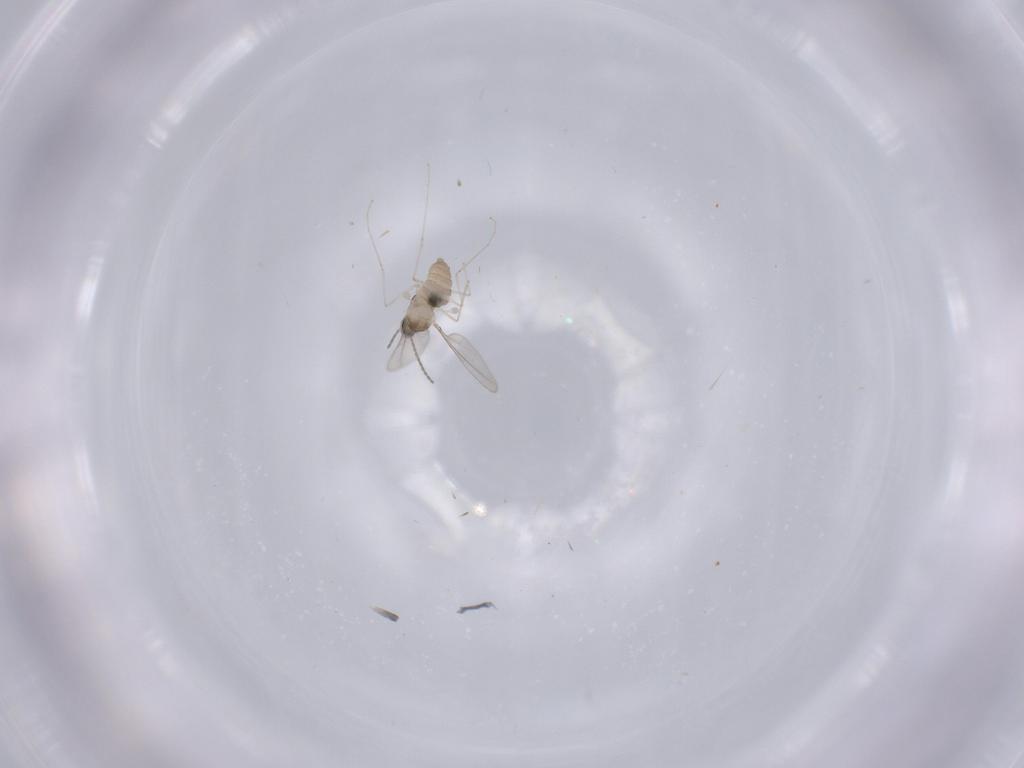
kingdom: Animalia
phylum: Arthropoda
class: Insecta
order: Diptera
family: Cecidomyiidae
